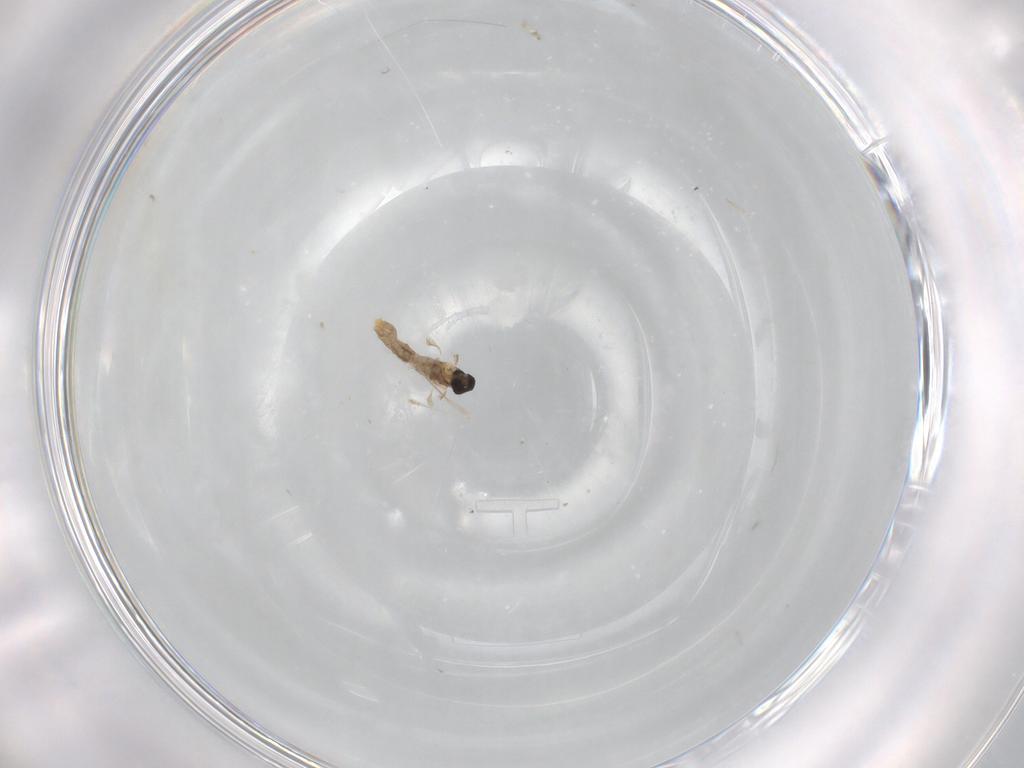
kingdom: Animalia
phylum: Arthropoda
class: Insecta
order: Diptera
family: Cecidomyiidae
